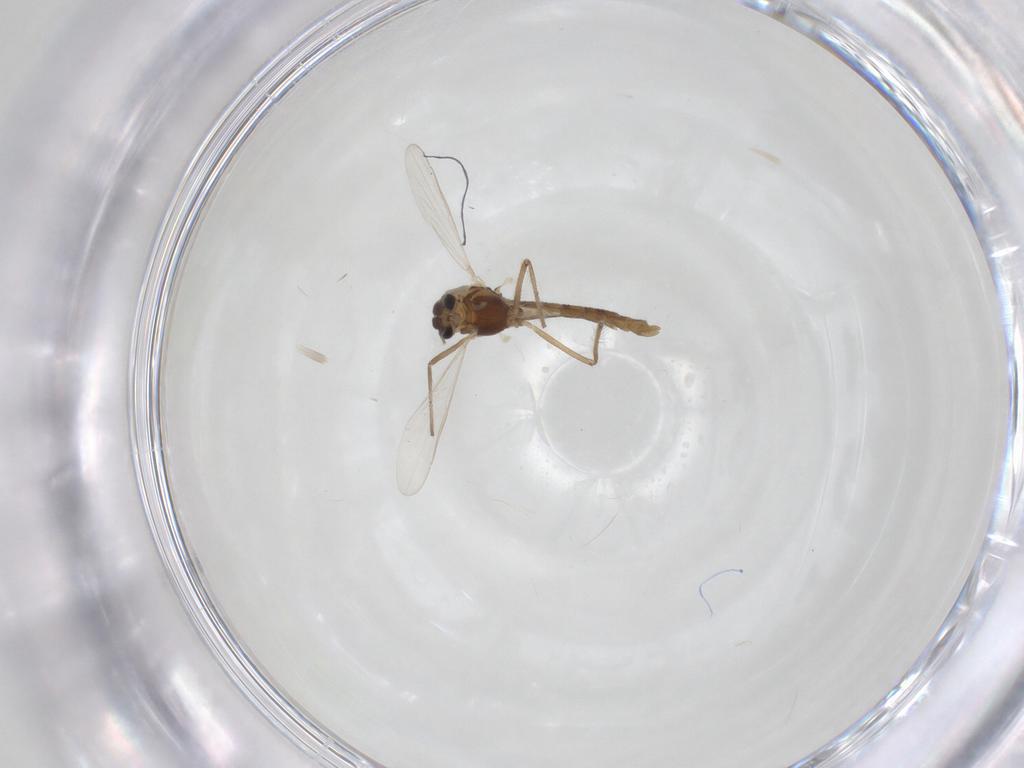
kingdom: Animalia
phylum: Arthropoda
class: Insecta
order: Diptera
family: Chironomidae
